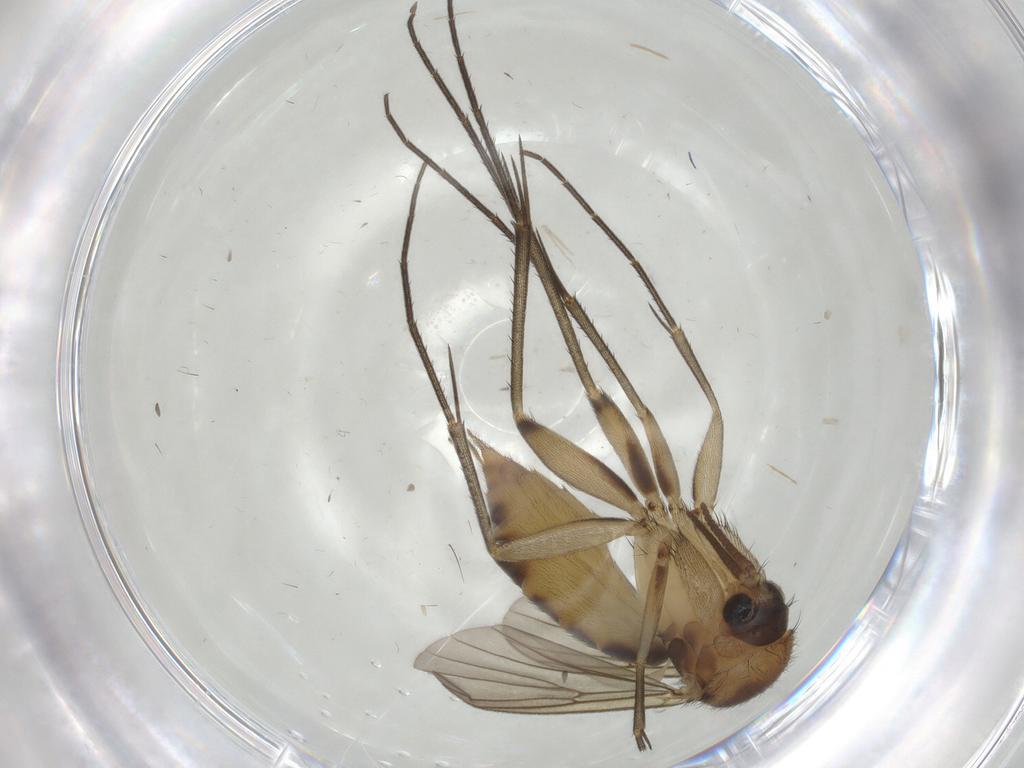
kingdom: Animalia
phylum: Arthropoda
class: Insecta
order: Diptera
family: Mycetophilidae
